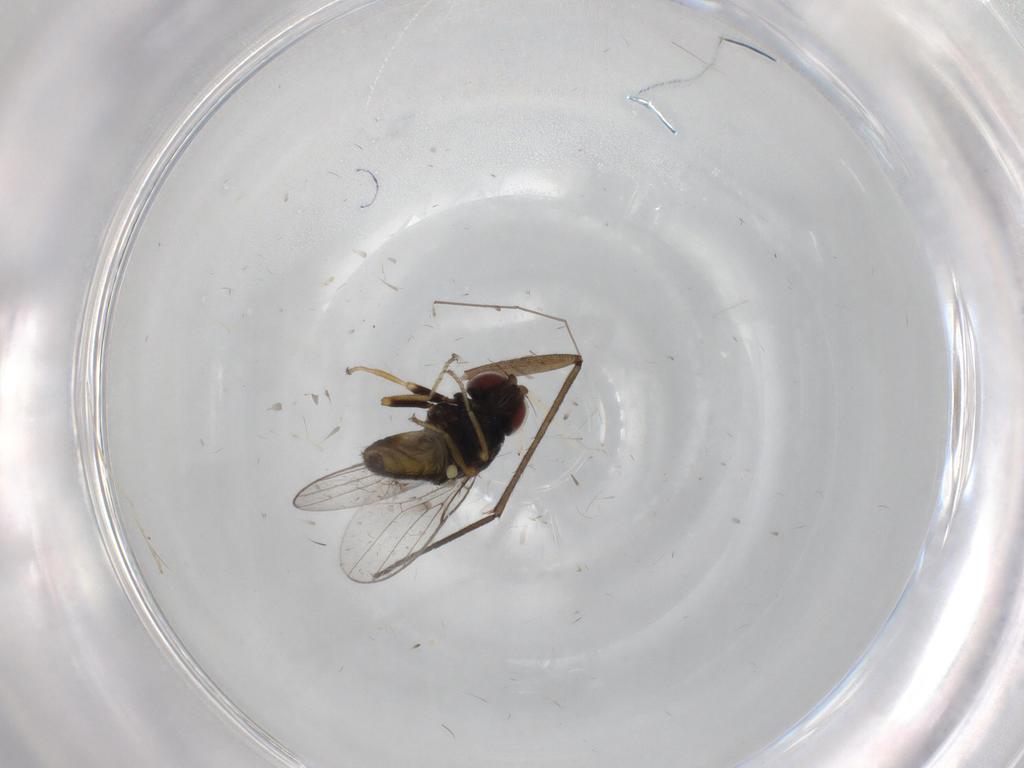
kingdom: Animalia
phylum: Arthropoda
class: Insecta
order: Diptera
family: Chloropidae
